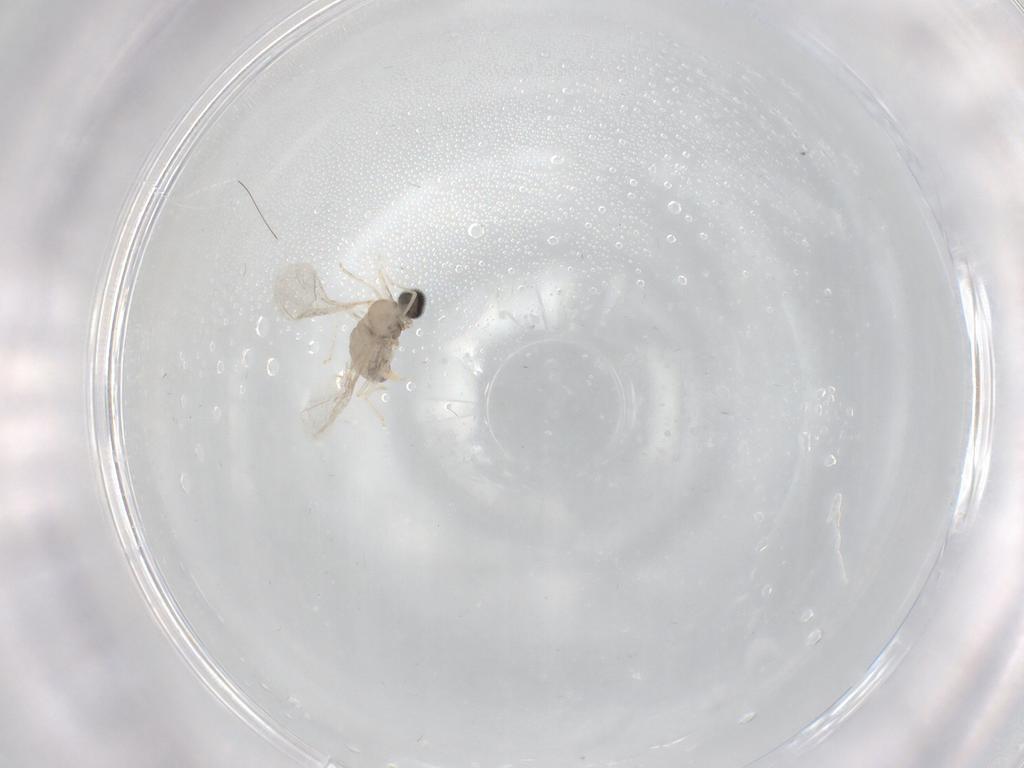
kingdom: Animalia
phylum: Arthropoda
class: Insecta
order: Diptera
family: Cecidomyiidae
